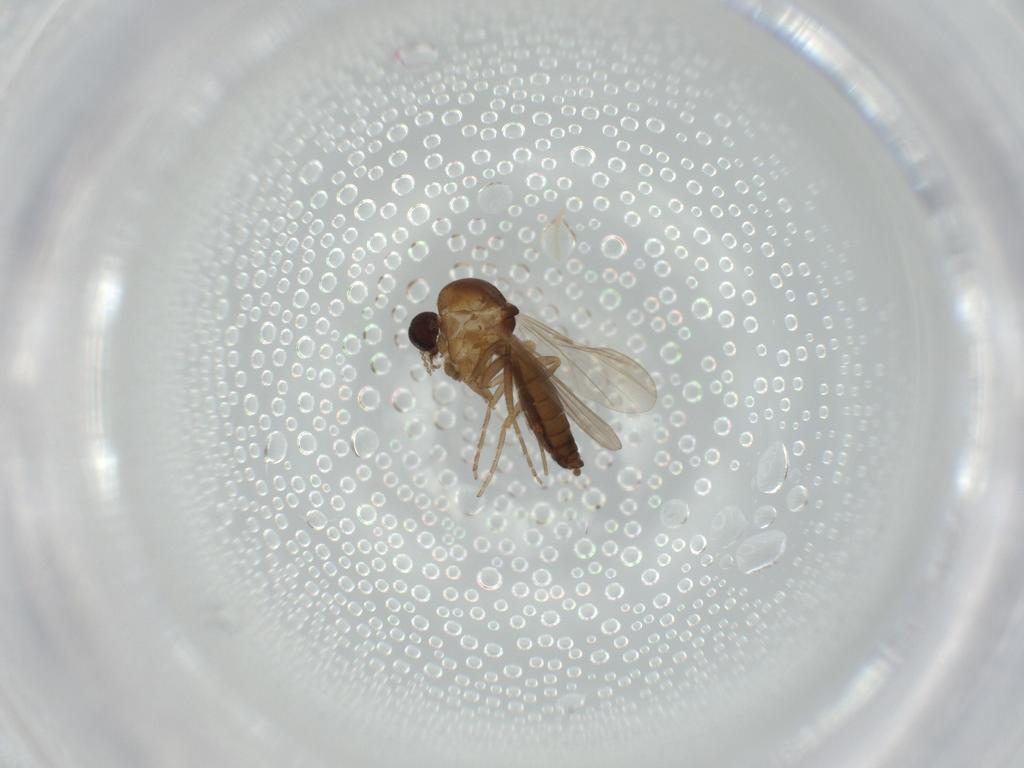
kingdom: Animalia
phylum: Arthropoda
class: Insecta
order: Diptera
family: Ceratopogonidae
